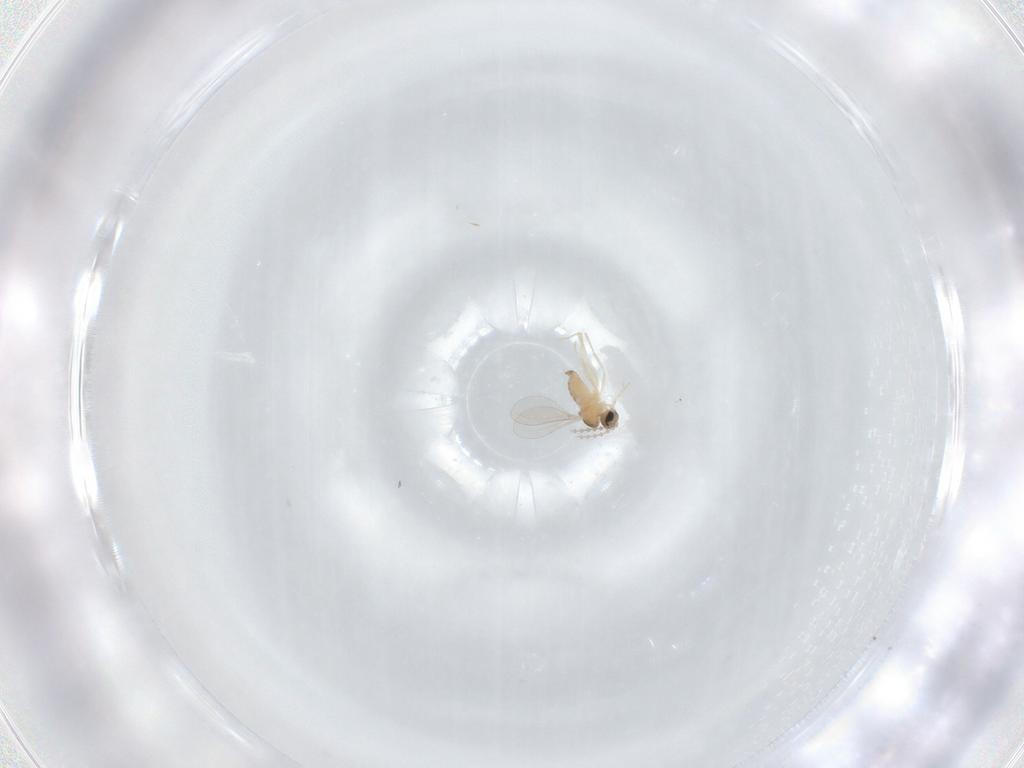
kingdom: Animalia
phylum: Arthropoda
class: Insecta
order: Diptera
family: Cecidomyiidae
